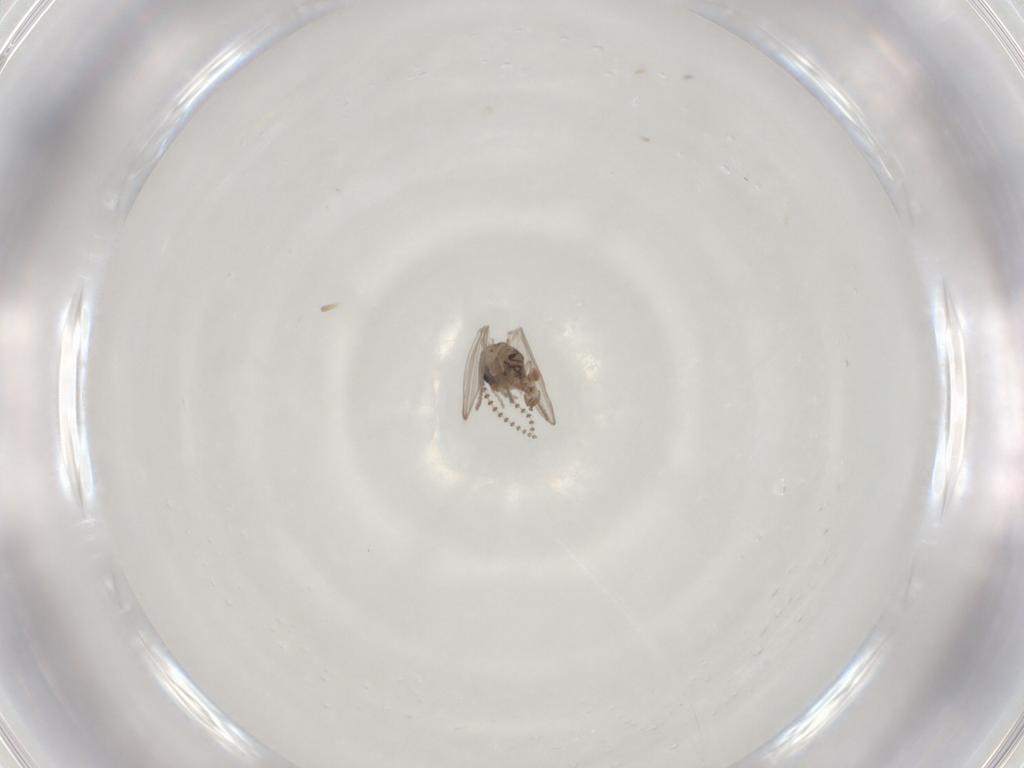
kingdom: Animalia
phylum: Arthropoda
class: Insecta
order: Diptera
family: Psychodidae
